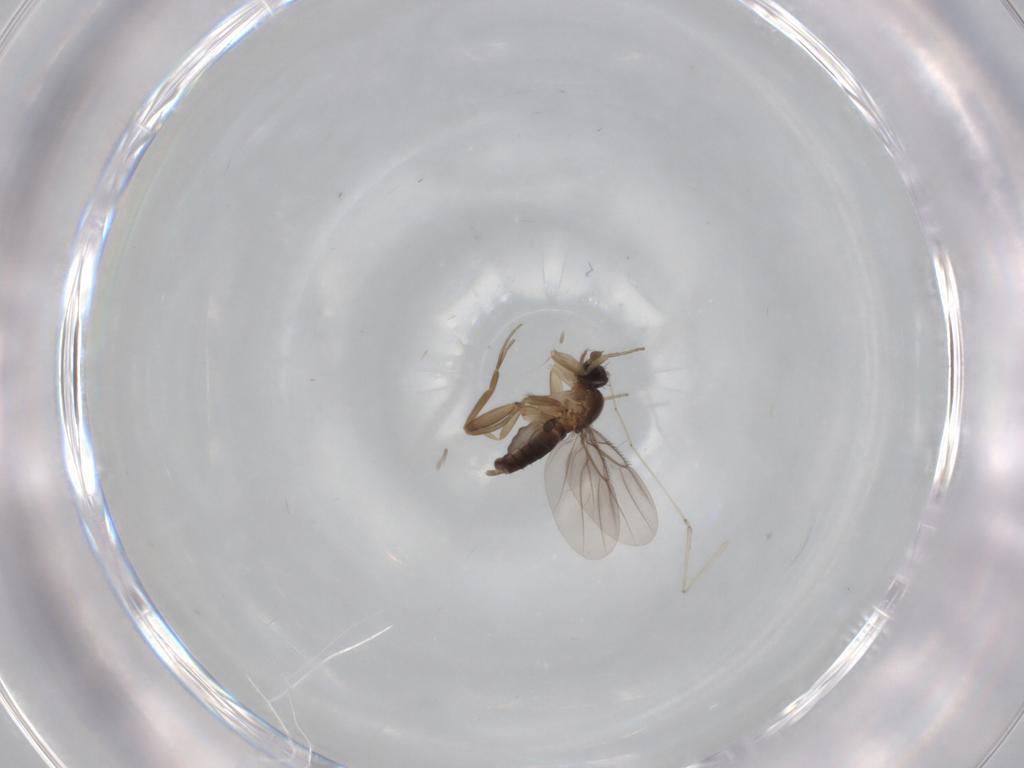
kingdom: Animalia
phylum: Arthropoda
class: Insecta
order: Diptera
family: Phoridae
